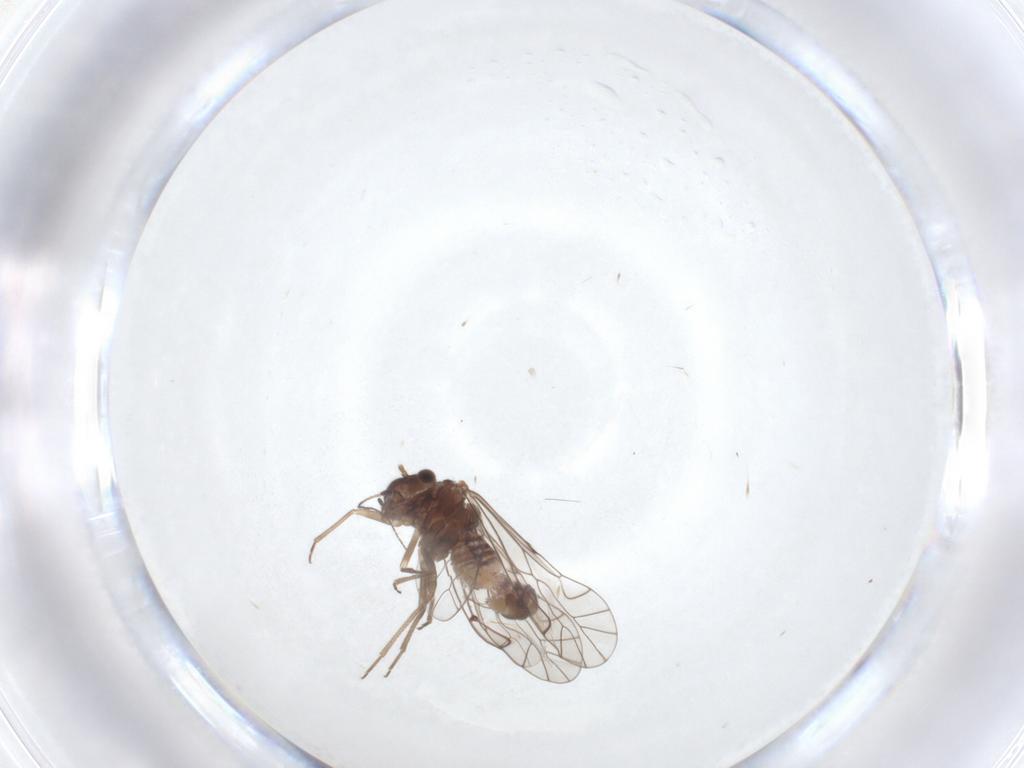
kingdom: Animalia
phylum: Arthropoda
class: Insecta
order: Psocodea
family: Lachesillidae
